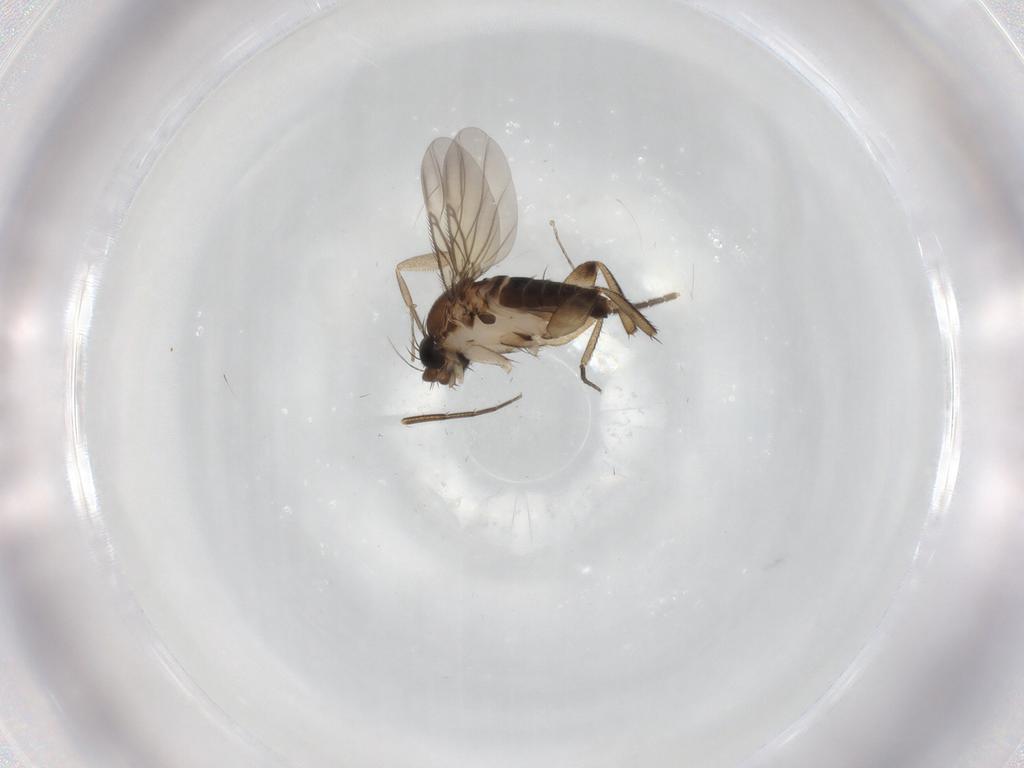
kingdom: Animalia
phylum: Arthropoda
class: Insecta
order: Diptera
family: Phoridae
